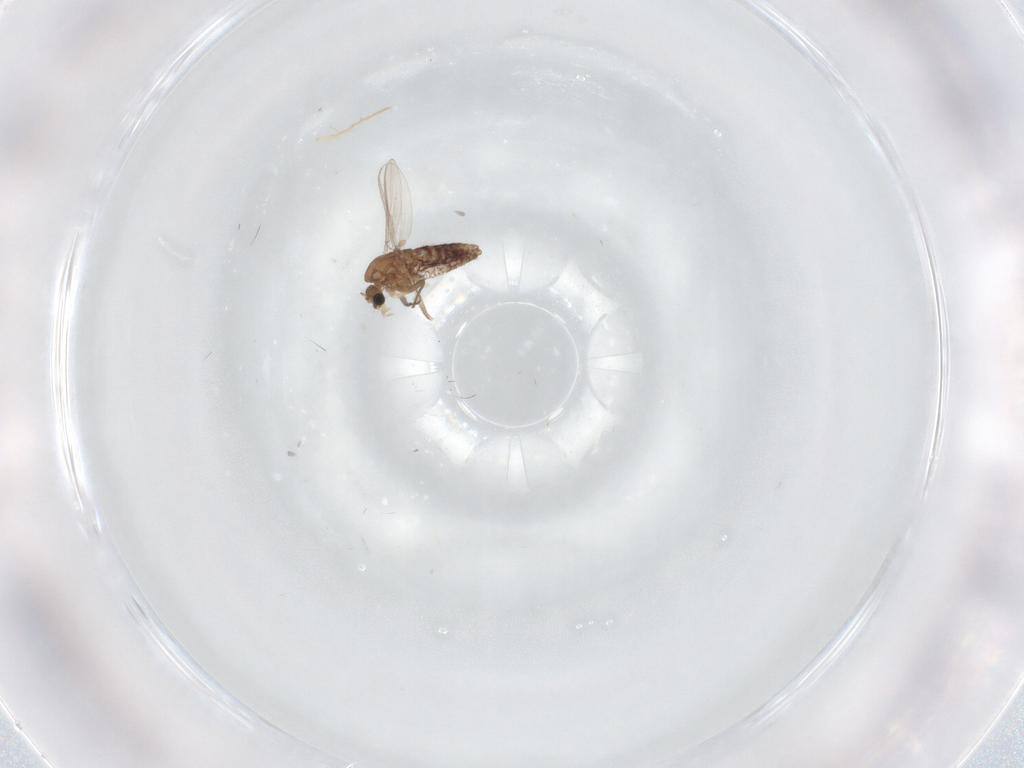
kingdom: Animalia
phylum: Arthropoda
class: Insecta
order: Diptera
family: Chironomidae
